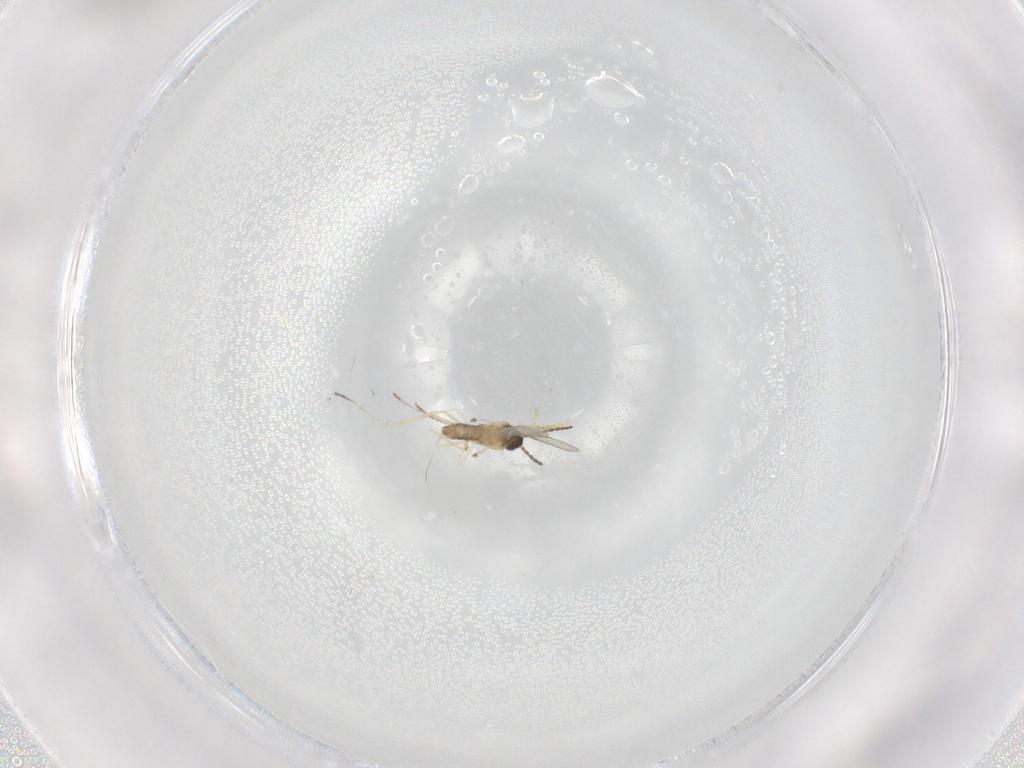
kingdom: Animalia
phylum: Arthropoda
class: Insecta
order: Diptera
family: Cecidomyiidae
